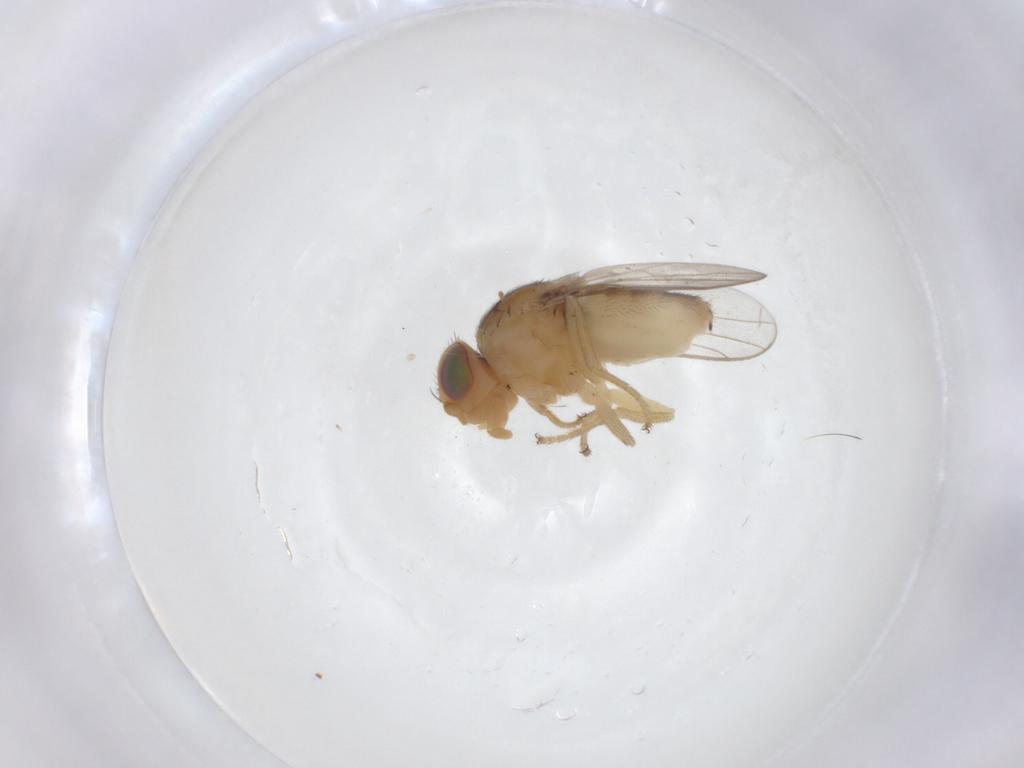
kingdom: Animalia
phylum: Arthropoda
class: Insecta
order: Diptera
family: Chloropidae
